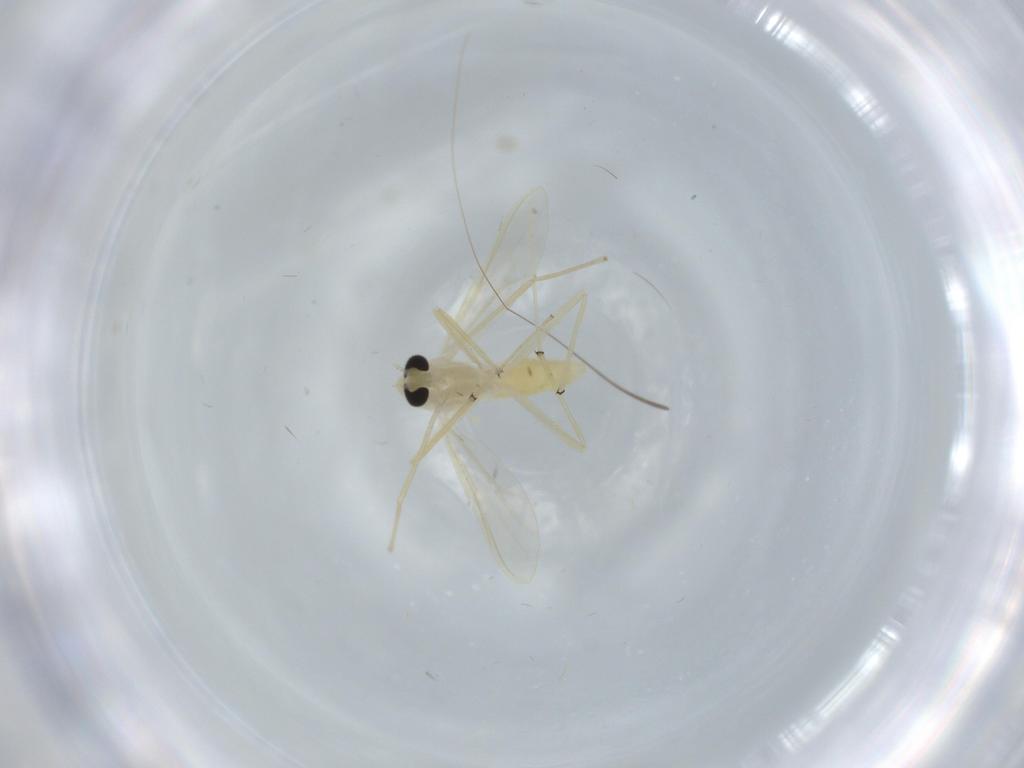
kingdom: Animalia
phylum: Arthropoda
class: Insecta
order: Diptera
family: Chironomidae
